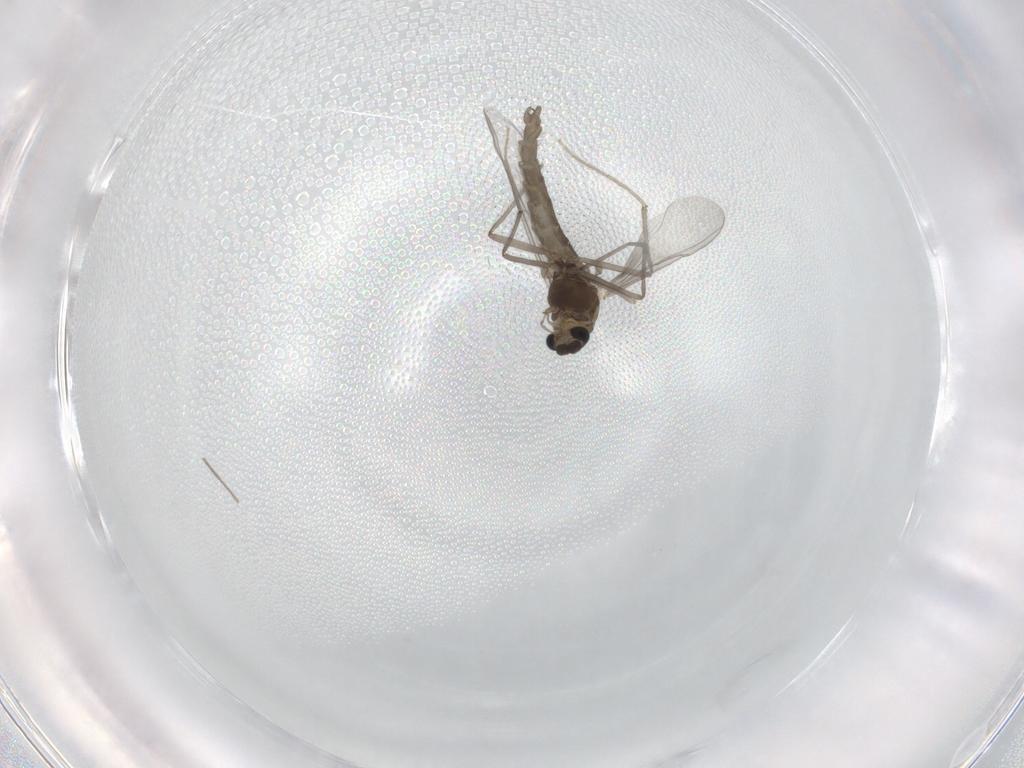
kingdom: Animalia
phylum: Arthropoda
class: Insecta
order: Diptera
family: Chironomidae
